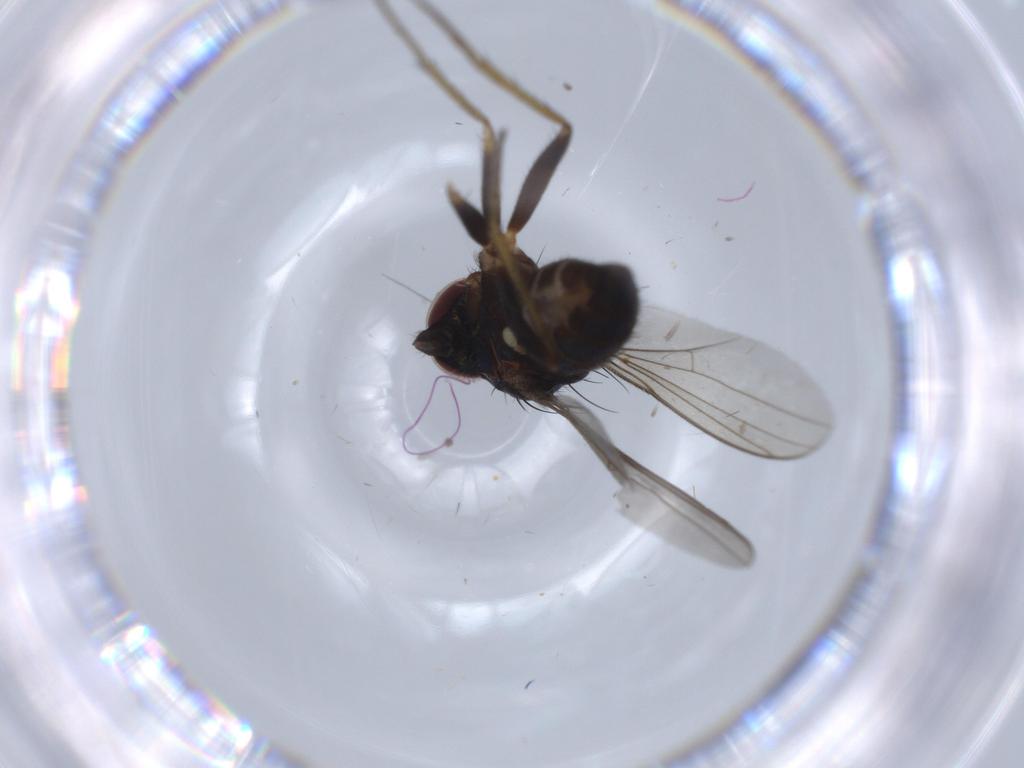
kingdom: Animalia
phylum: Arthropoda
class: Insecta
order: Diptera
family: Dolichopodidae
